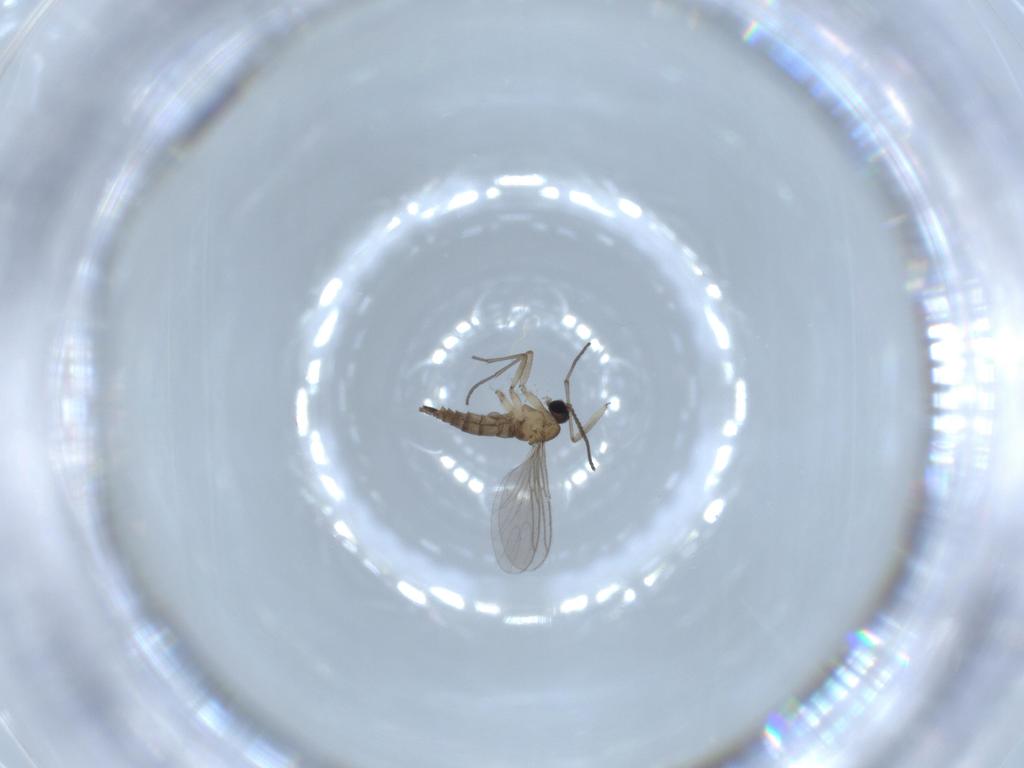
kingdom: Animalia
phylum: Arthropoda
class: Insecta
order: Diptera
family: Sciaridae
